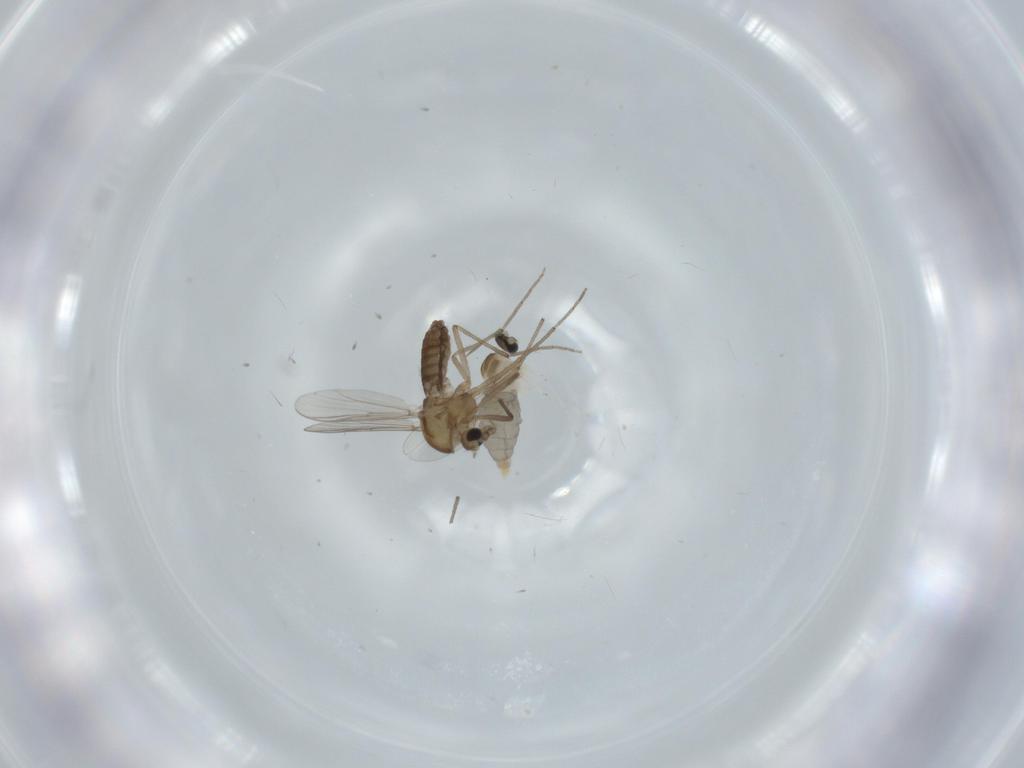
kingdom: Animalia
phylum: Arthropoda
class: Insecta
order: Diptera
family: Chironomidae
